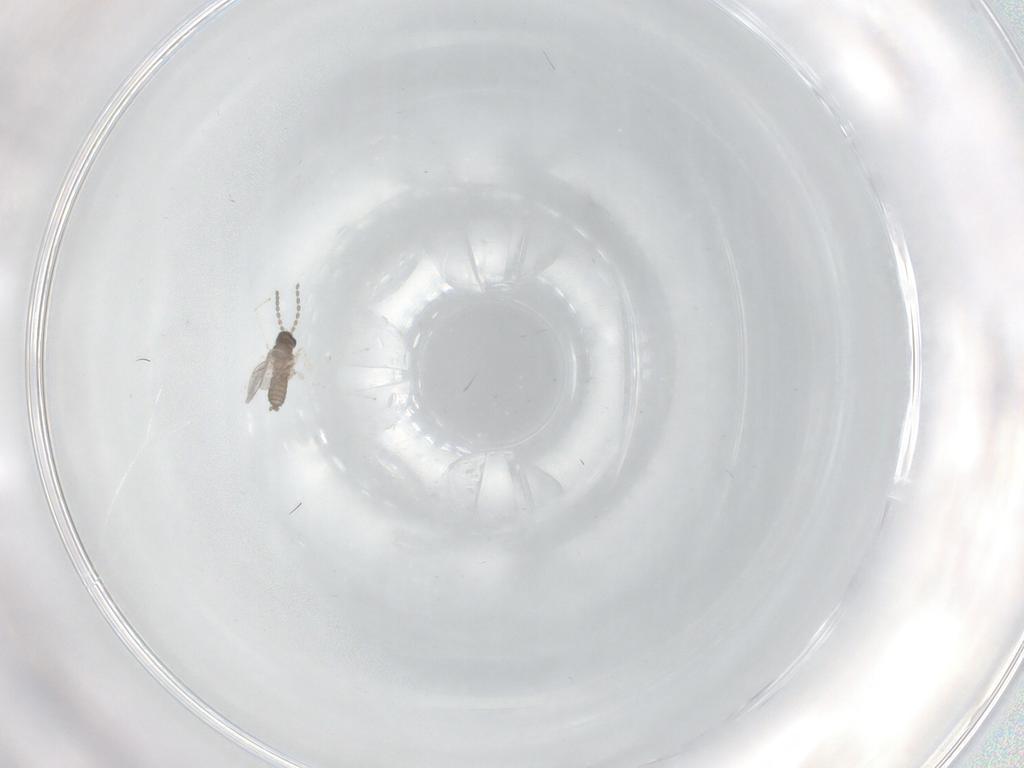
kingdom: Animalia
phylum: Arthropoda
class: Insecta
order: Diptera
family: Cecidomyiidae
